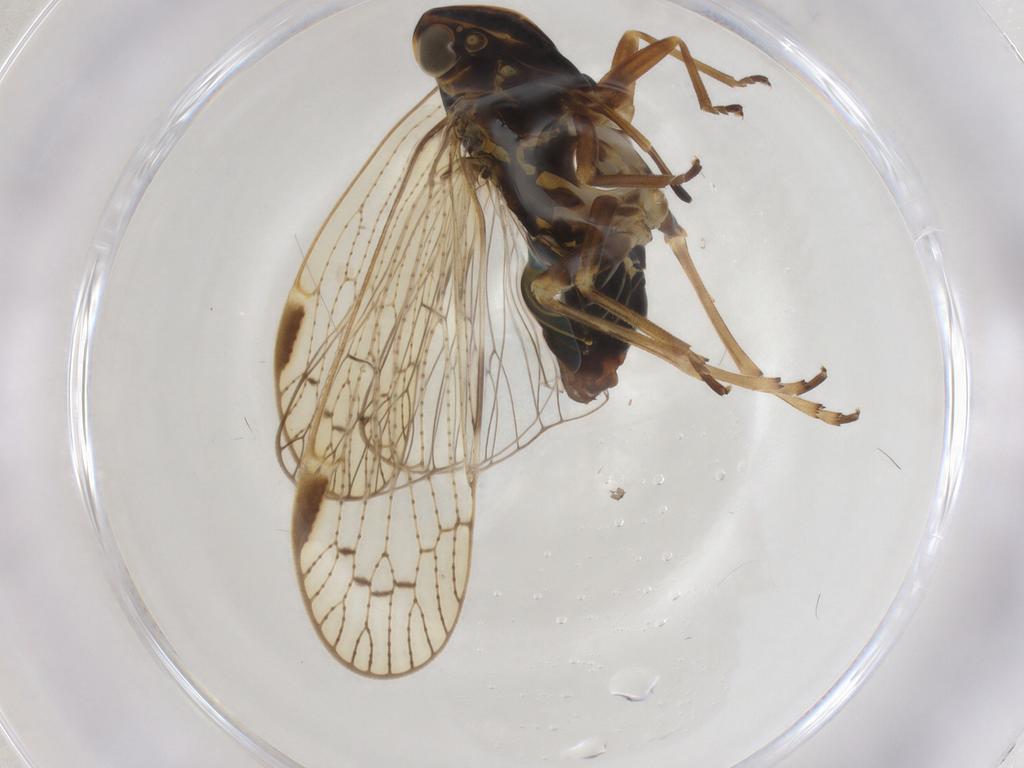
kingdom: Animalia
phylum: Arthropoda
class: Insecta
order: Hemiptera
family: Cixiidae
